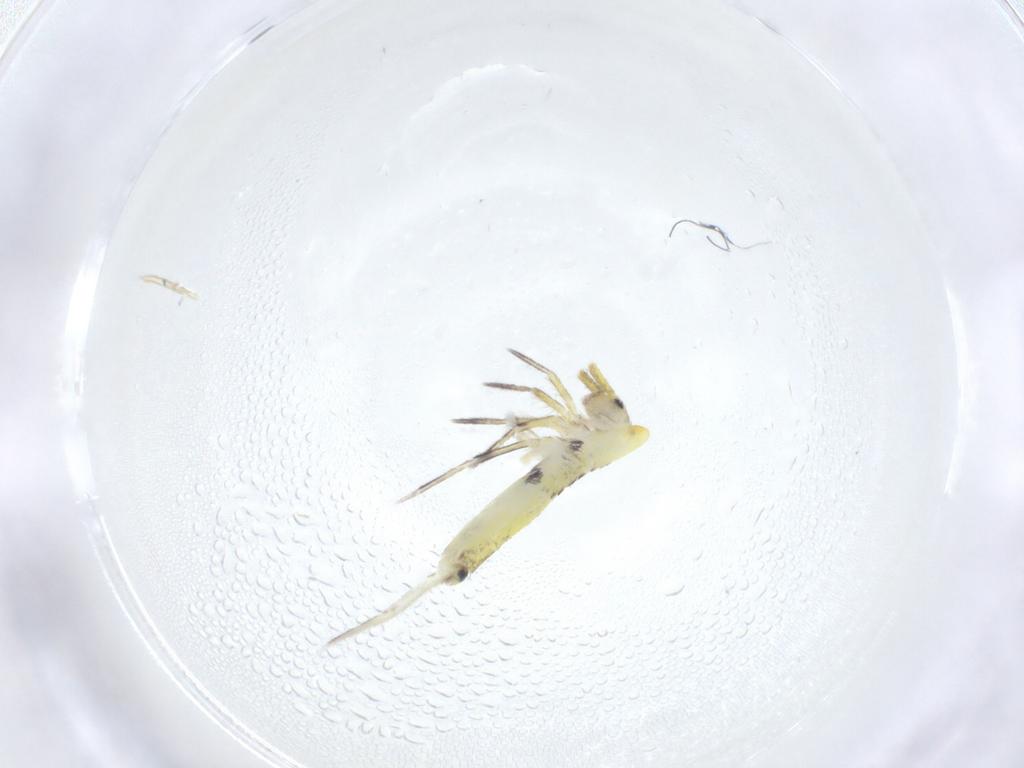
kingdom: Animalia
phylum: Arthropoda
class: Collembola
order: Entomobryomorpha
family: Entomobryidae
